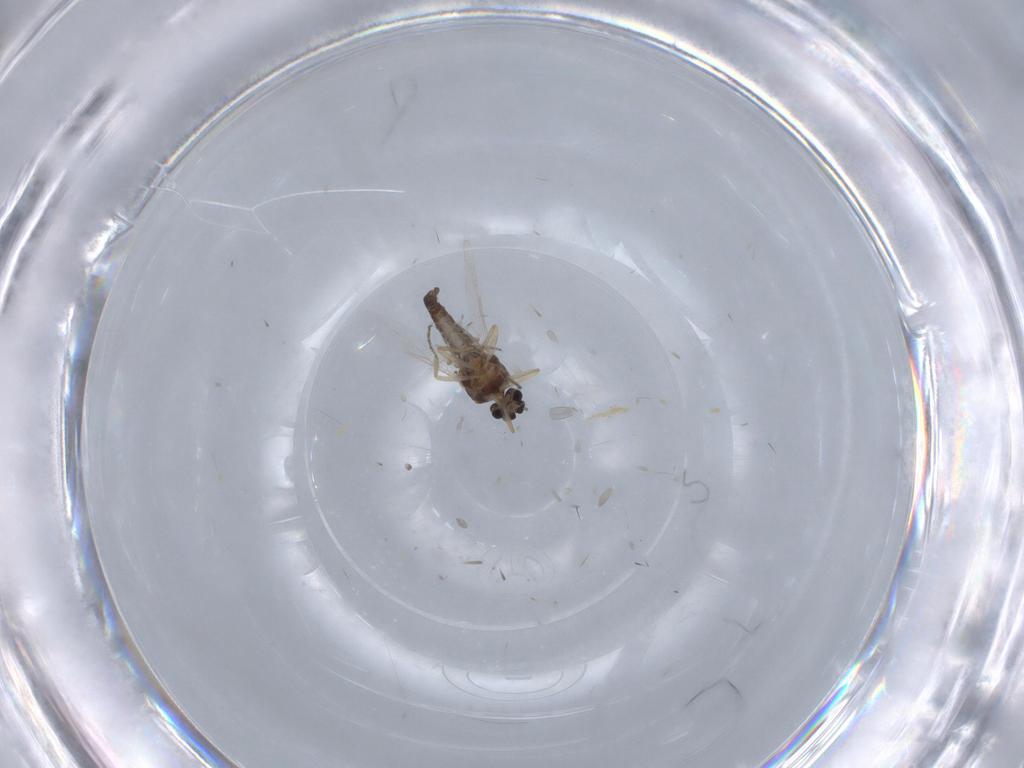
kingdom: Animalia
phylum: Arthropoda
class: Insecta
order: Diptera
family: Ceratopogonidae
